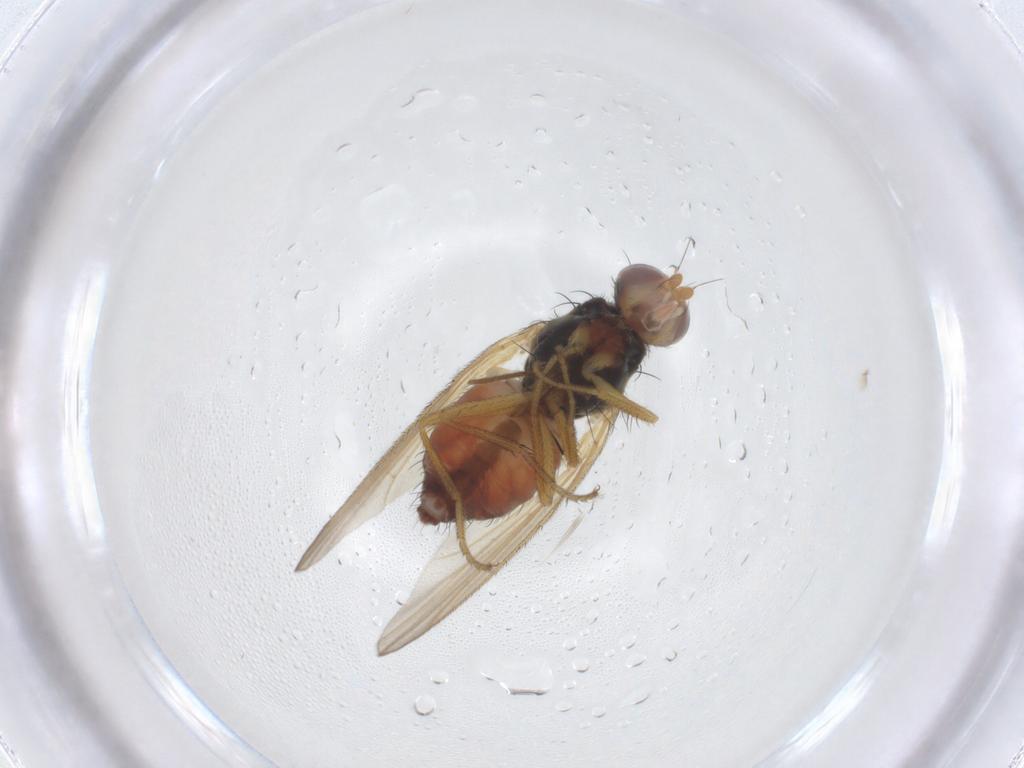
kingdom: Animalia
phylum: Arthropoda
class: Insecta
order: Diptera
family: Heleomyzidae
